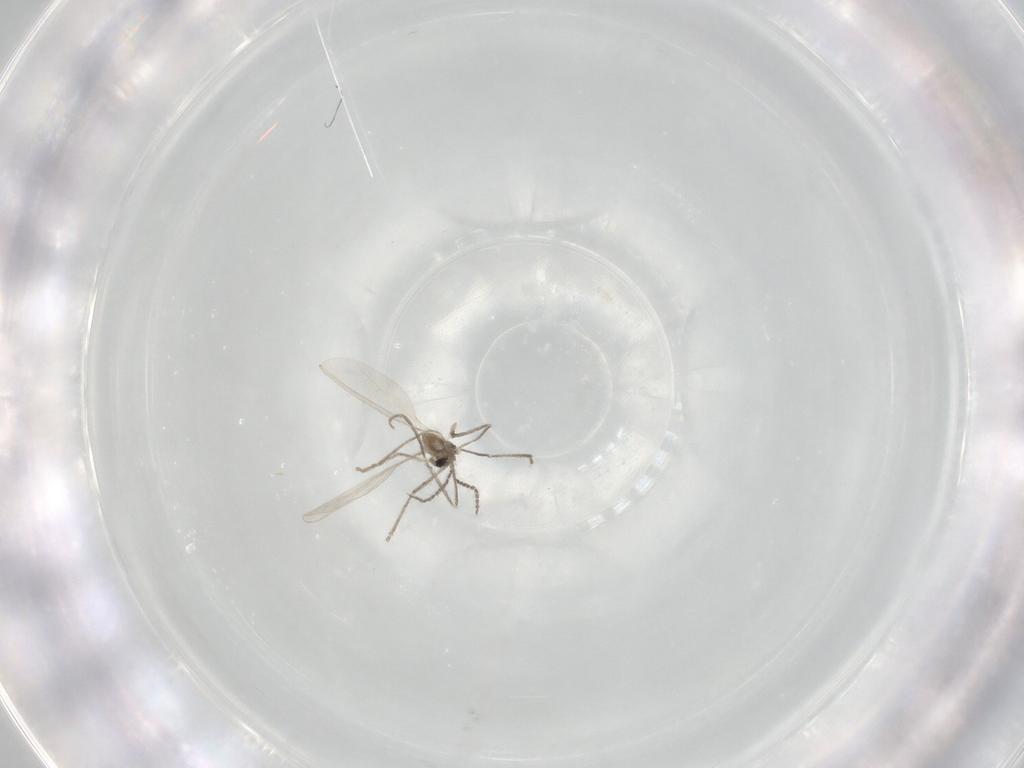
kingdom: Animalia
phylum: Arthropoda
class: Insecta
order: Diptera
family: Cecidomyiidae
